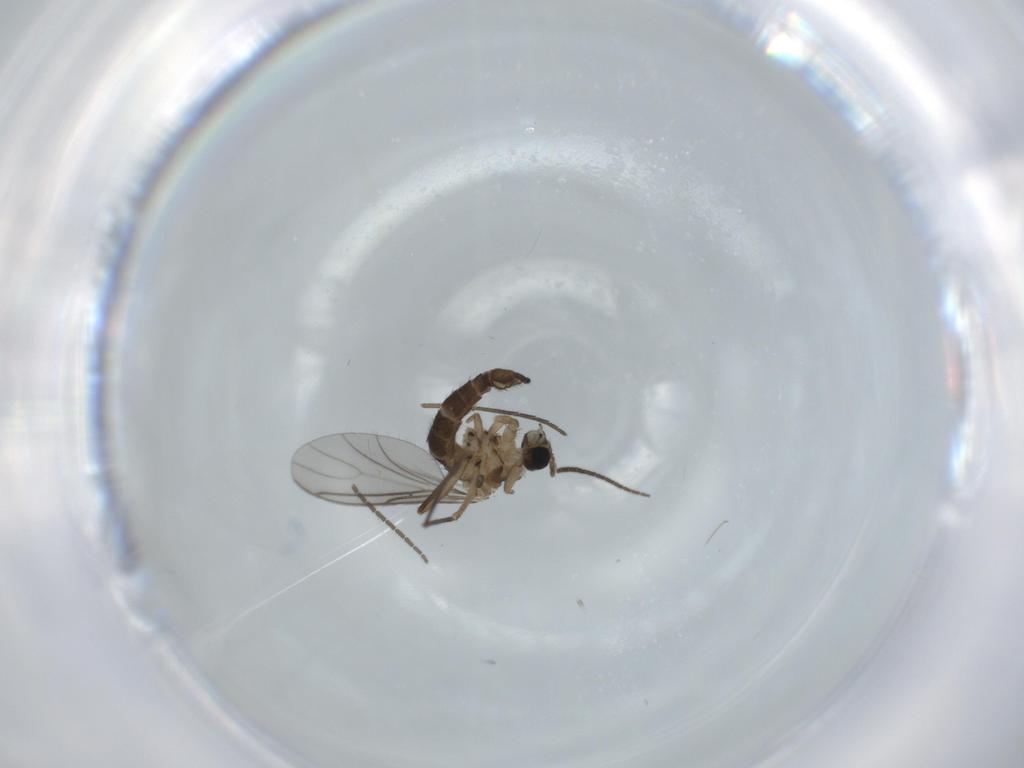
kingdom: Animalia
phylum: Arthropoda
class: Insecta
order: Diptera
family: Sciaridae
